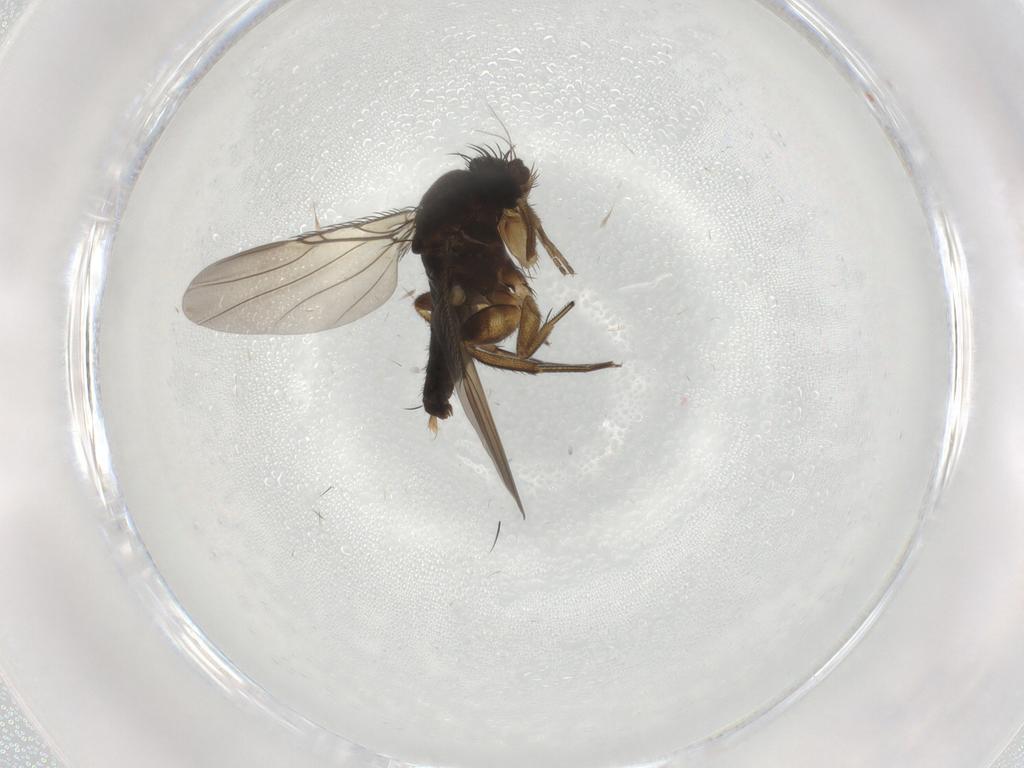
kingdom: Animalia
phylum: Arthropoda
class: Insecta
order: Diptera
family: Phoridae
